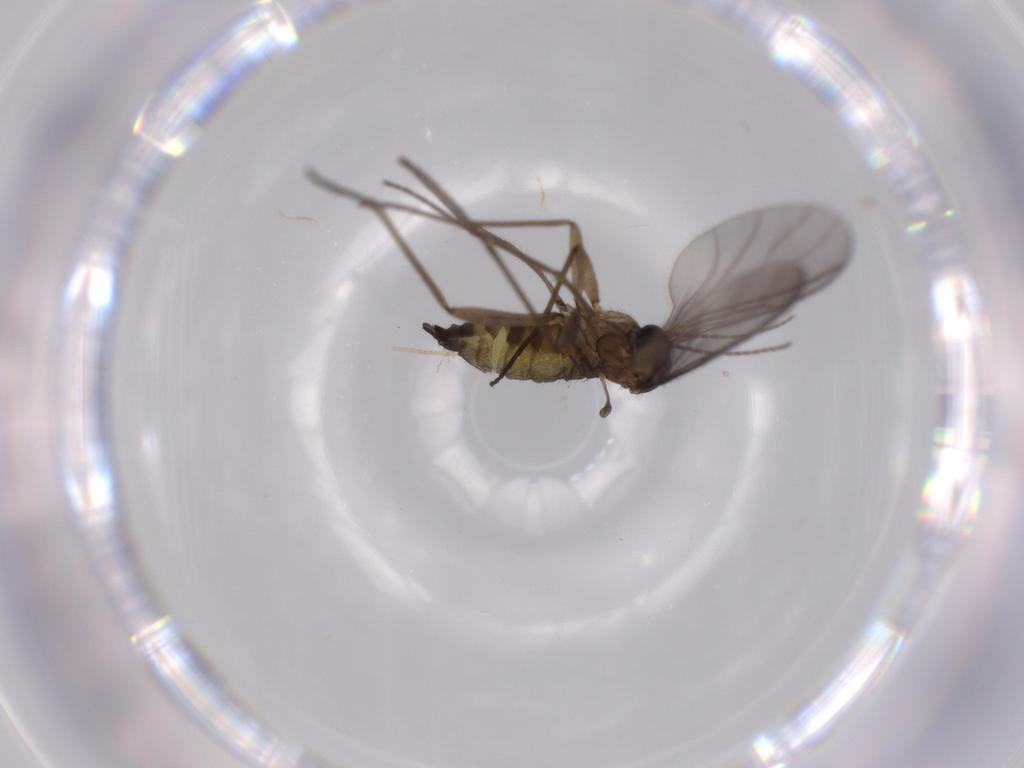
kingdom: Animalia
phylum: Arthropoda
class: Insecta
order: Diptera
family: Sciaridae
